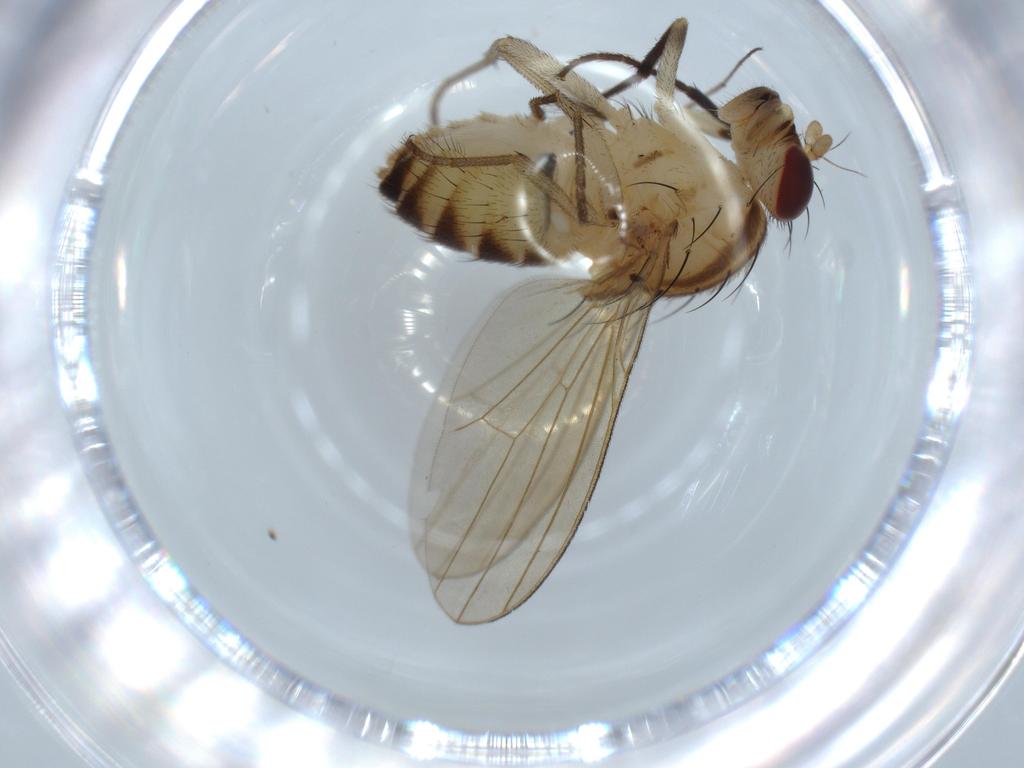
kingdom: Animalia
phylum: Arthropoda
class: Insecta
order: Diptera
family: Chironomidae
